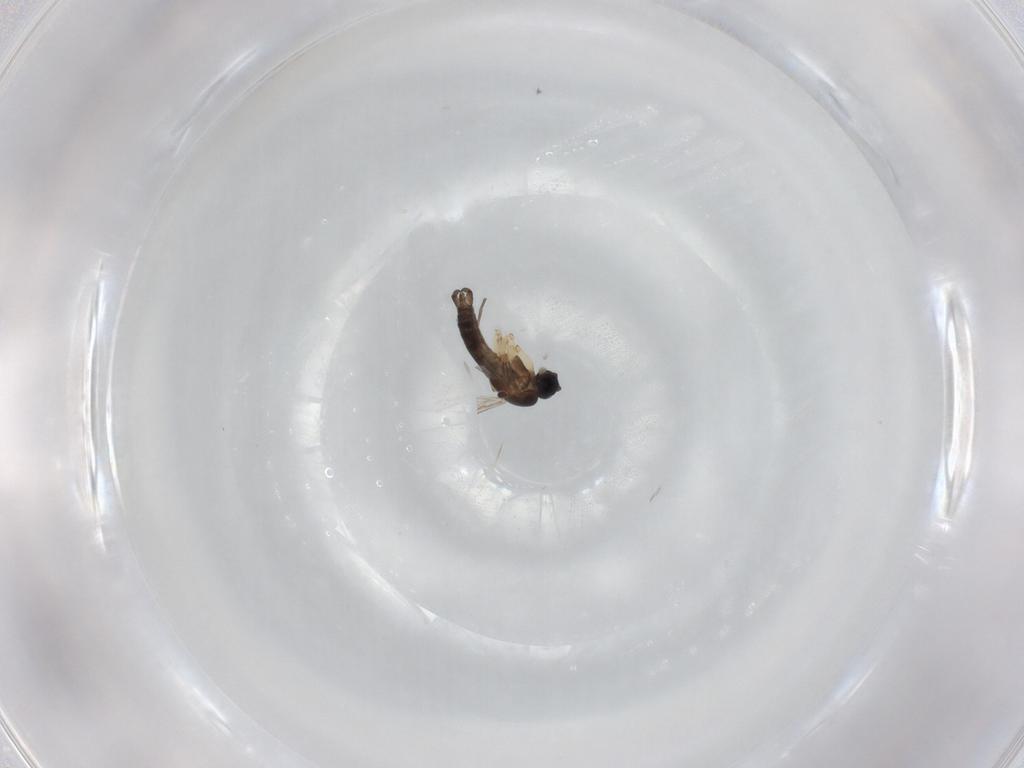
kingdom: Animalia
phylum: Arthropoda
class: Insecta
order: Diptera
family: Sciaridae
